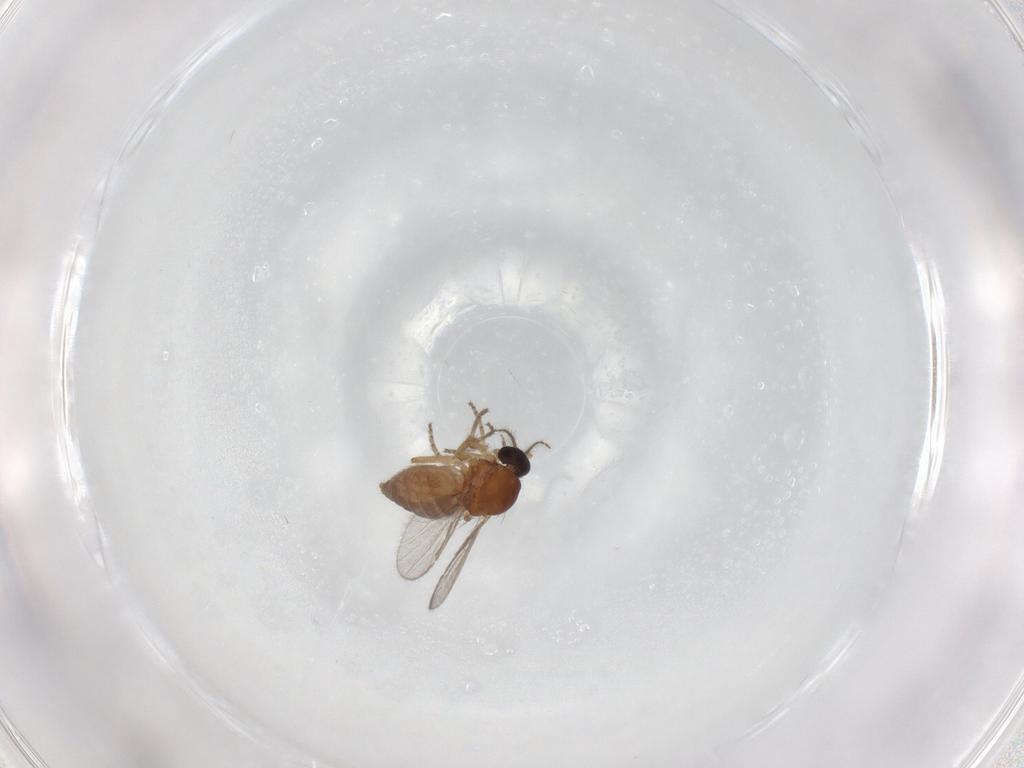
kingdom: Animalia
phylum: Arthropoda
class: Insecta
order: Diptera
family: Ceratopogonidae
